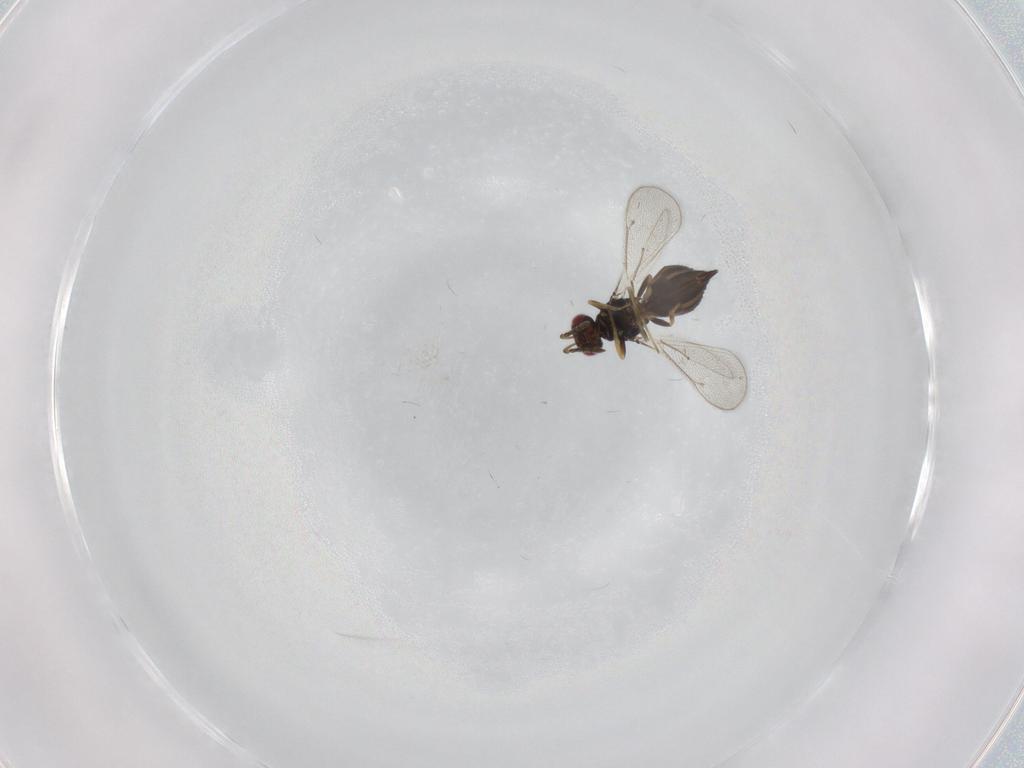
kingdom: Animalia
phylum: Arthropoda
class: Insecta
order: Hymenoptera
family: Eulophidae
